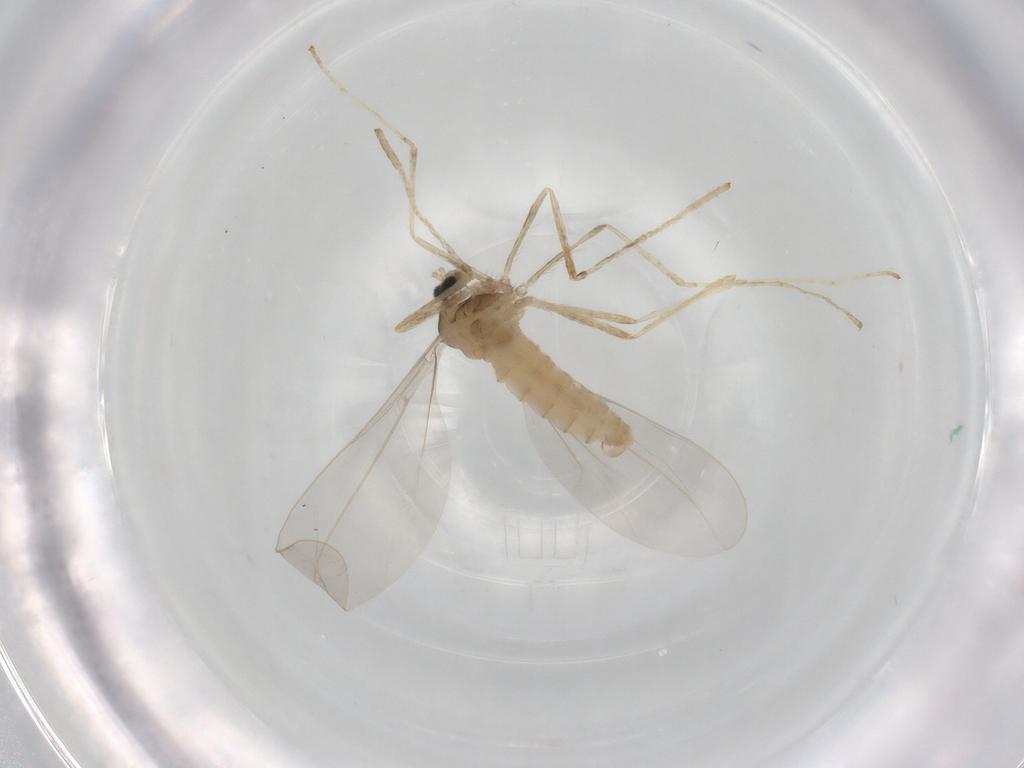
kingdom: Animalia
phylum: Arthropoda
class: Insecta
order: Diptera
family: Cecidomyiidae
